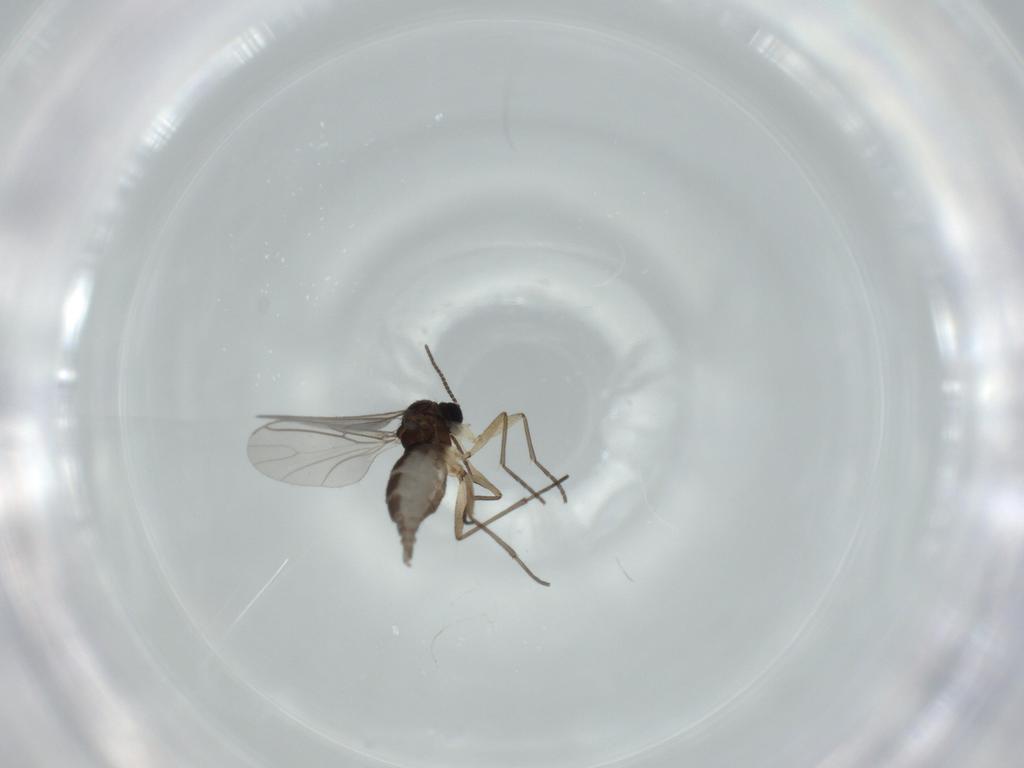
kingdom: Animalia
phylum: Arthropoda
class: Insecta
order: Diptera
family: Sciaridae
